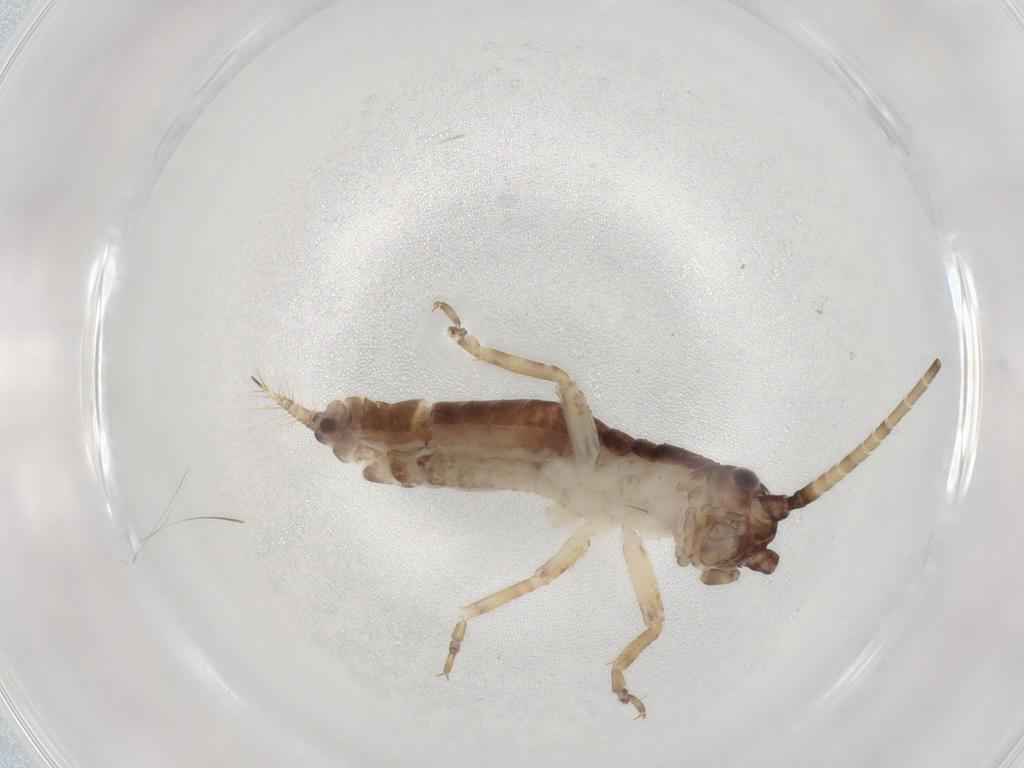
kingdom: Animalia
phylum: Arthropoda
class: Insecta
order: Orthoptera
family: Gryllidae
